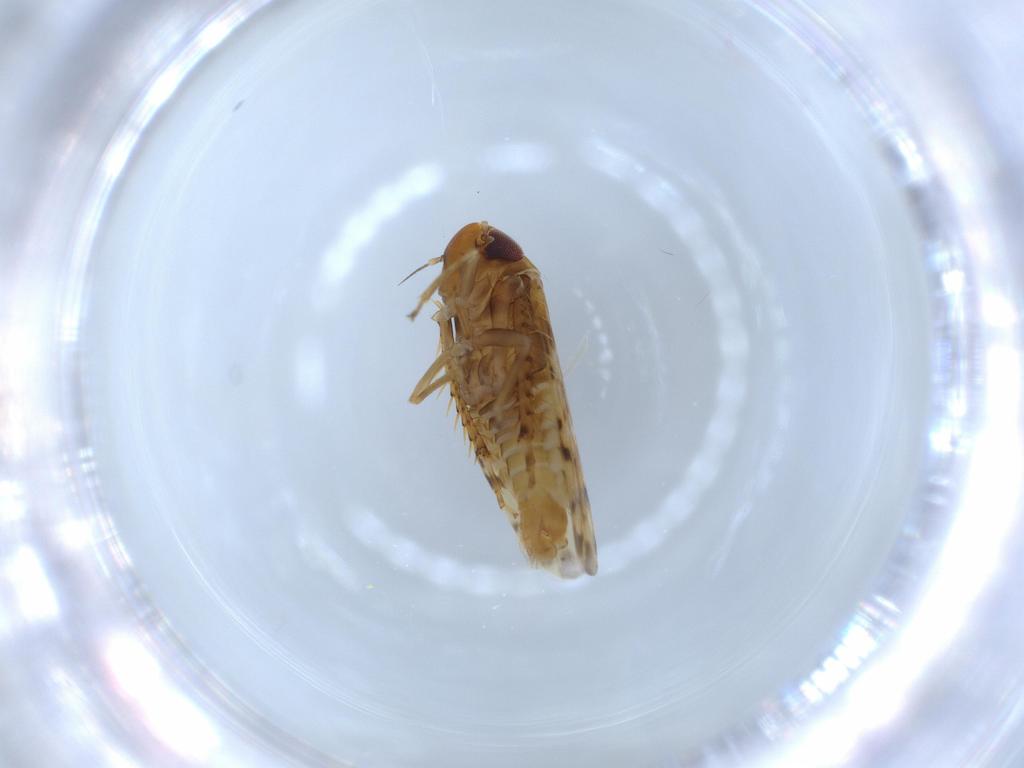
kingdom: Animalia
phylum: Arthropoda
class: Insecta
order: Hemiptera
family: Cicadellidae
